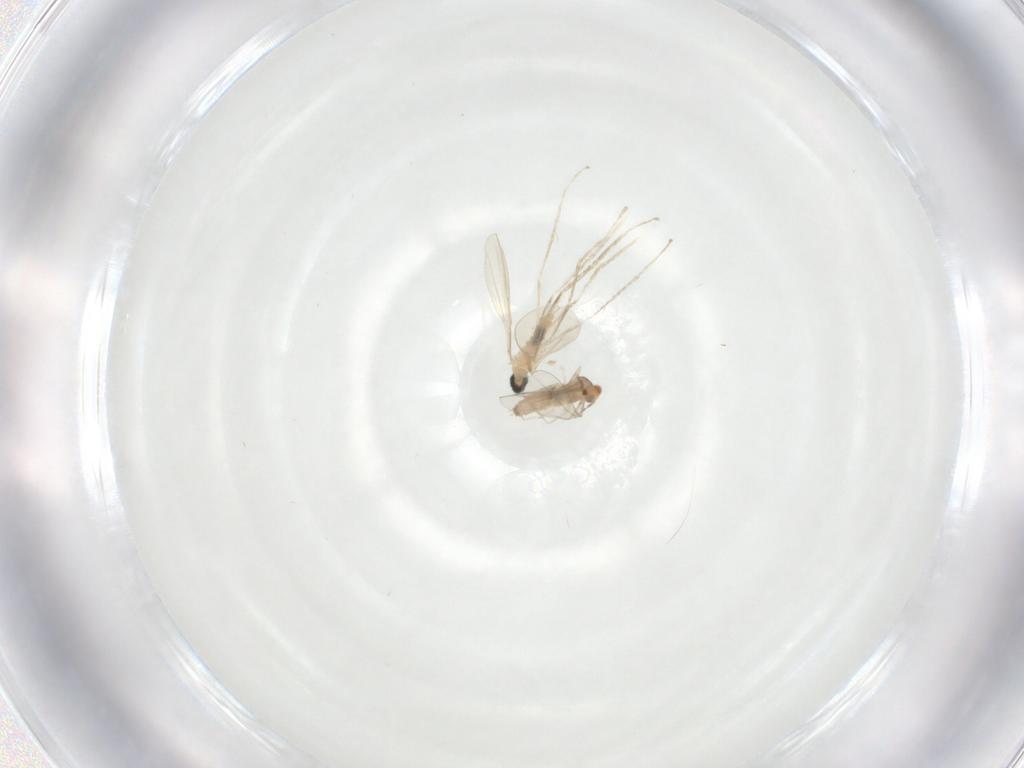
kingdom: Animalia
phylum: Arthropoda
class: Insecta
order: Diptera
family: Cecidomyiidae
